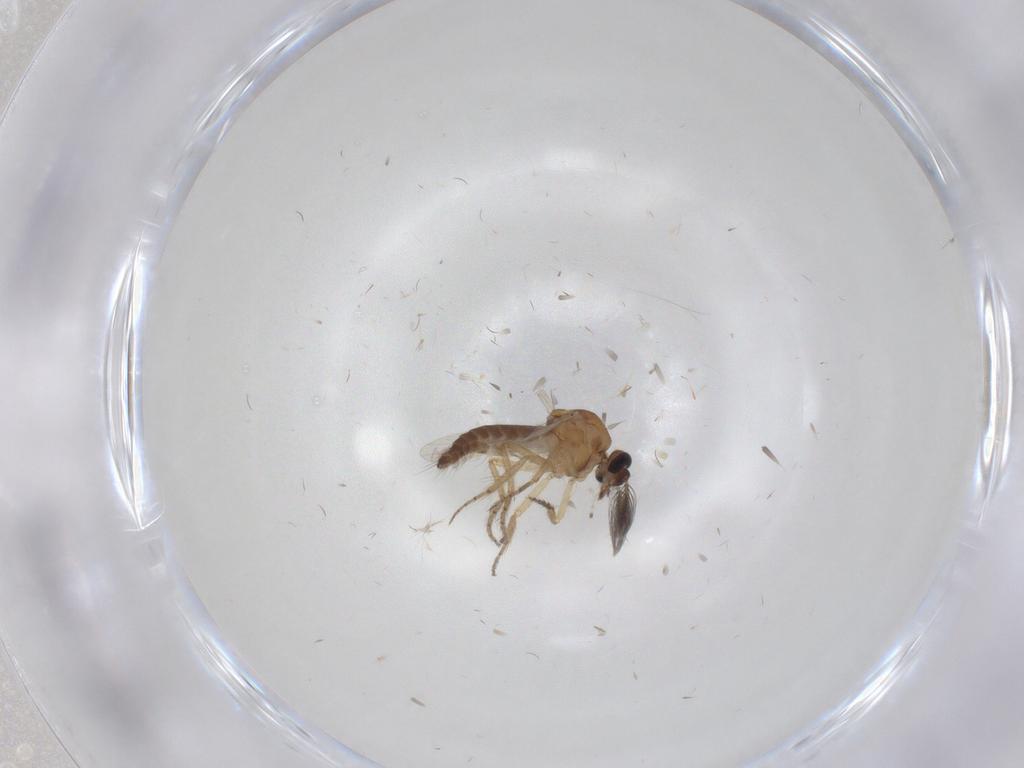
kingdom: Animalia
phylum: Arthropoda
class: Insecta
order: Diptera
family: Ceratopogonidae
